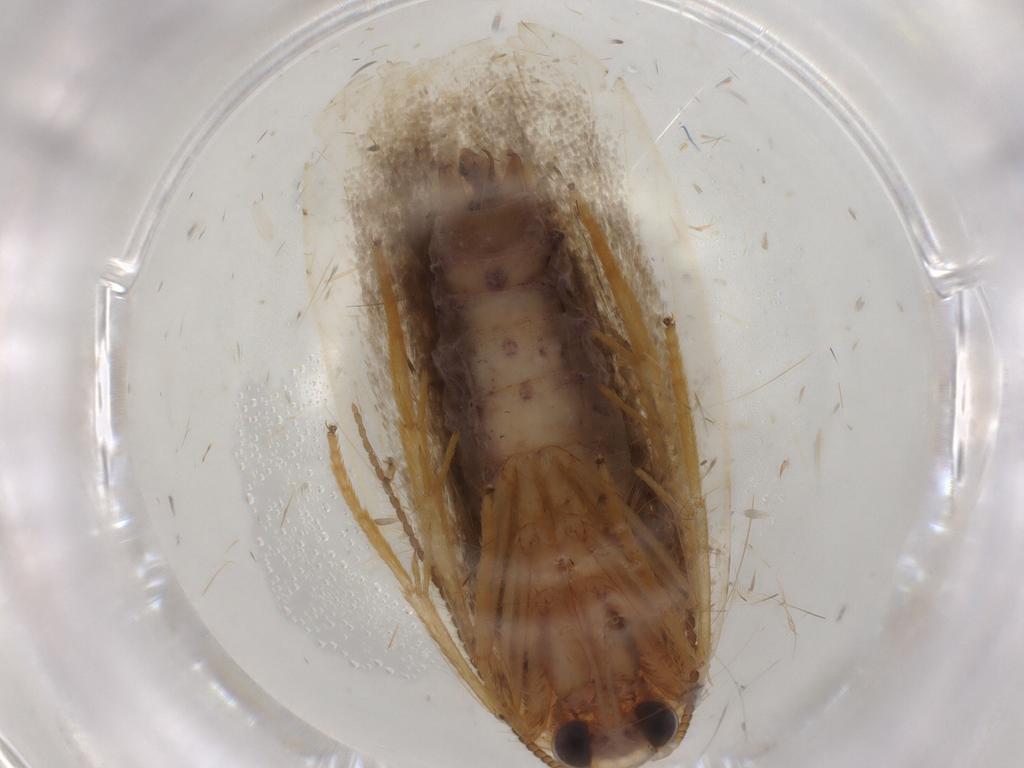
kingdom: Animalia
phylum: Arthropoda
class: Insecta
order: Lepidoptera
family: Erebidae
